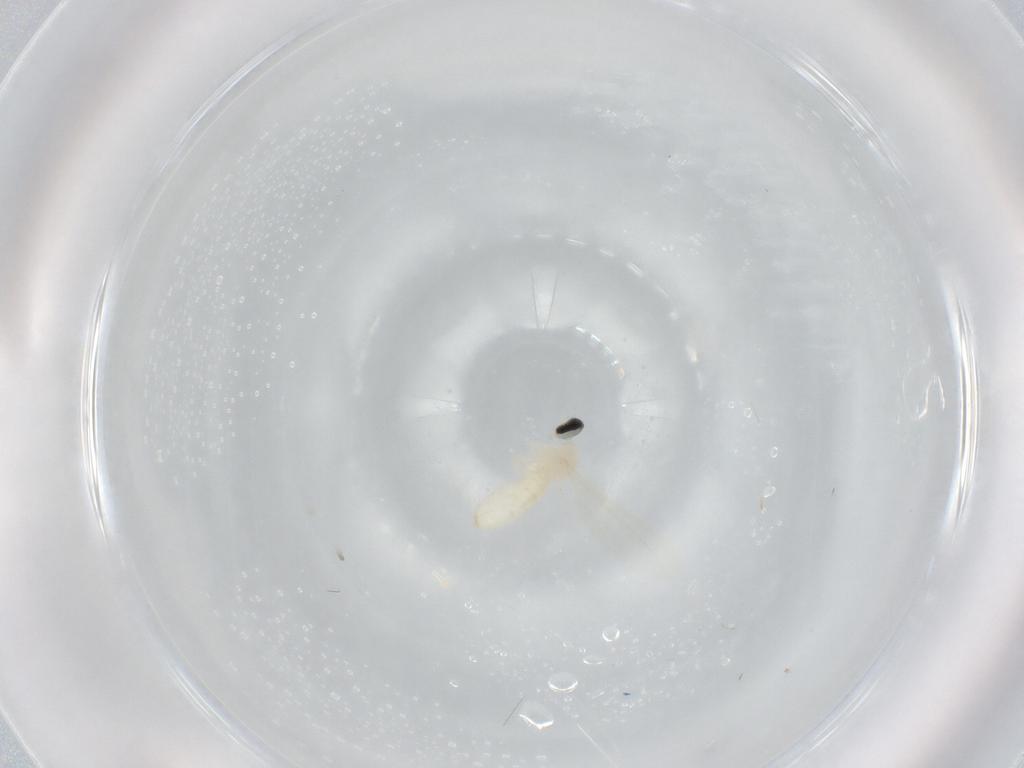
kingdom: Animalia
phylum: Arthropoda
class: Insecta
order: Diptera
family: Cecidomyiidae
